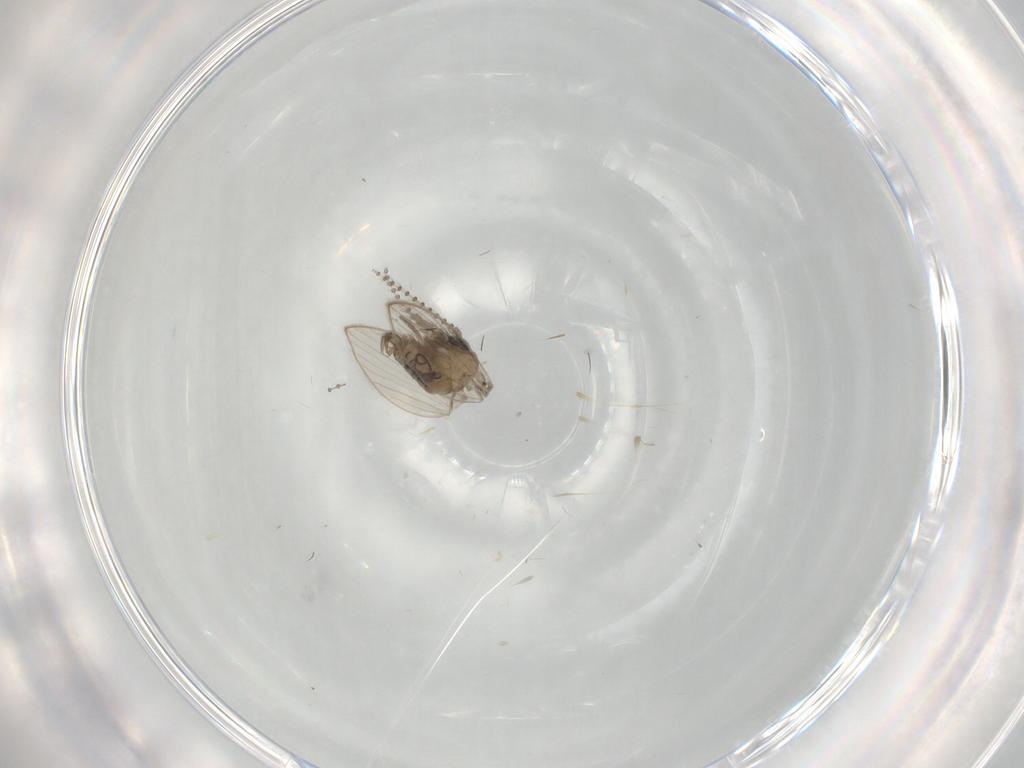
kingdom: Animalia
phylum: Arthropoda
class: Insecta
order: Diptera
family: Psychodidae
